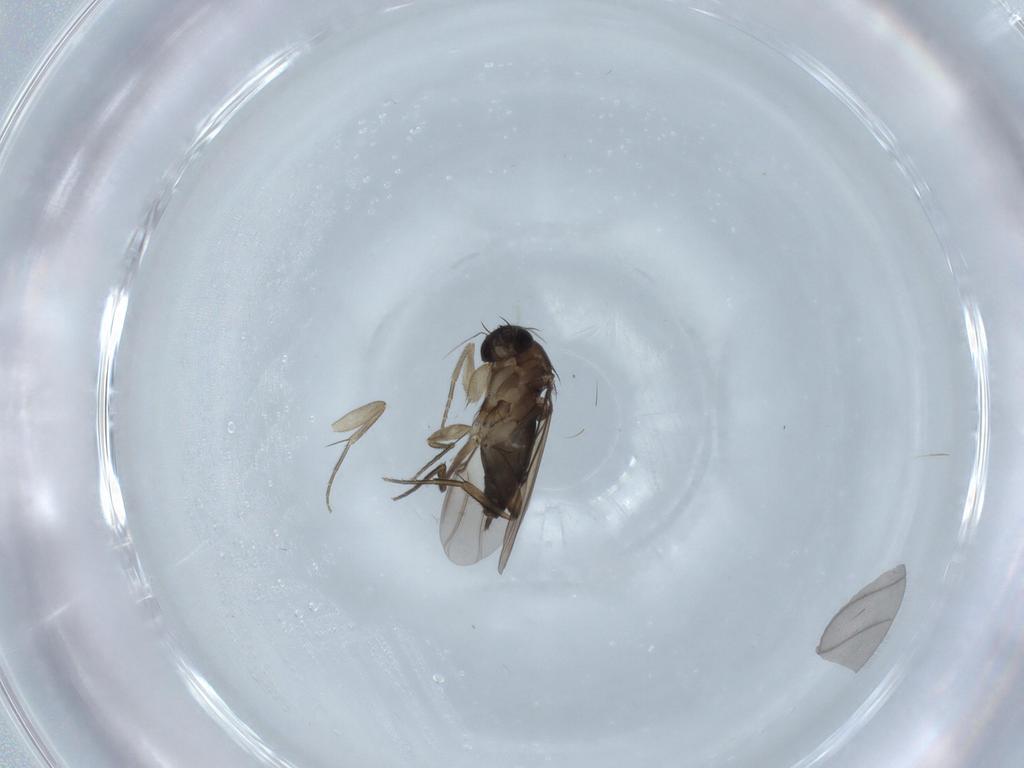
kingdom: Animalia
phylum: Arthropoda
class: Insecta
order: Diptera
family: Phoridae
